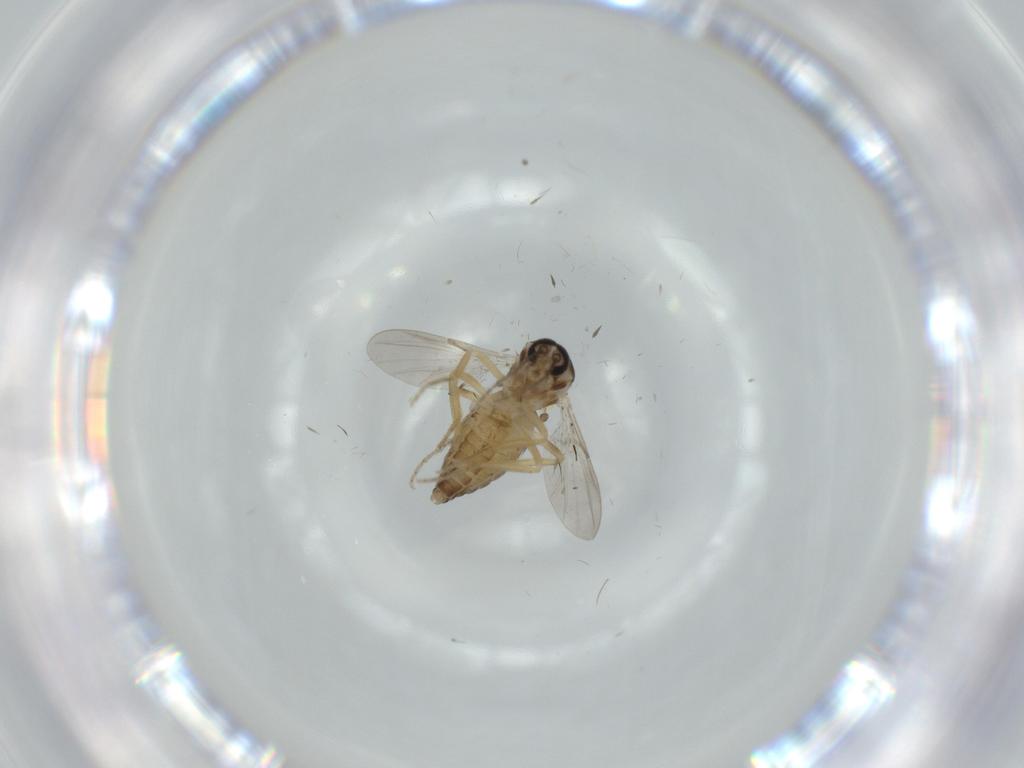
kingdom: Animalia
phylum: Arthropoda
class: Insecta
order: Diptera
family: Ceratopogonidae
